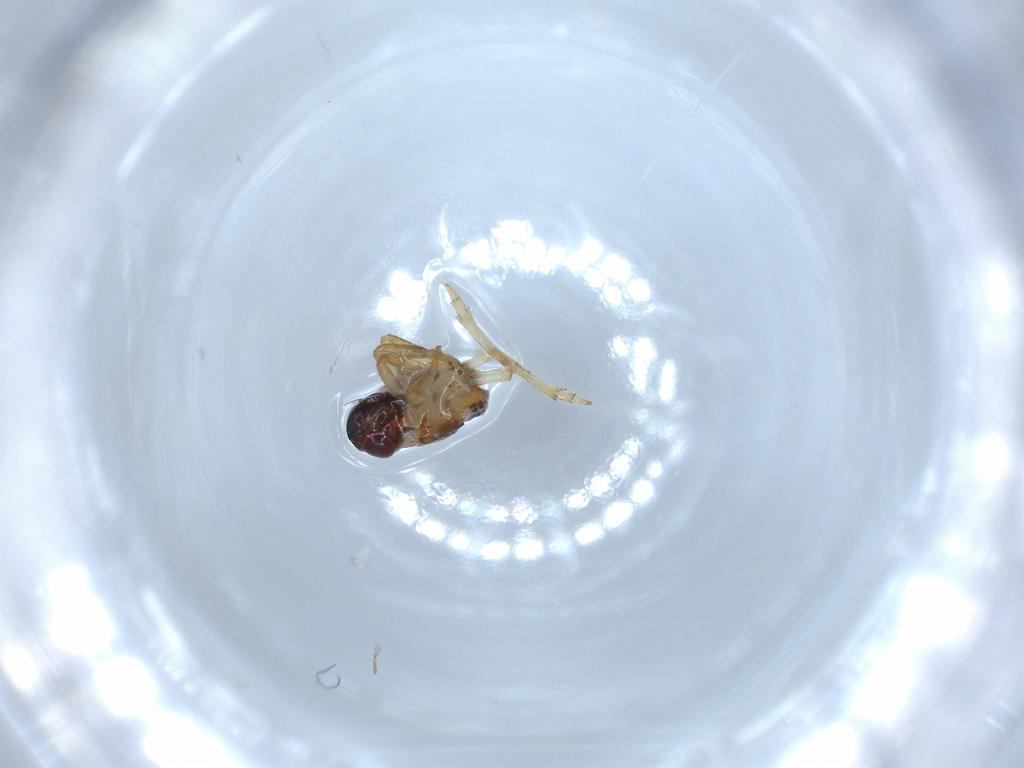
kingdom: Animalia
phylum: Arthropoda
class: Insecta
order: Hemiptera
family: Issidae
